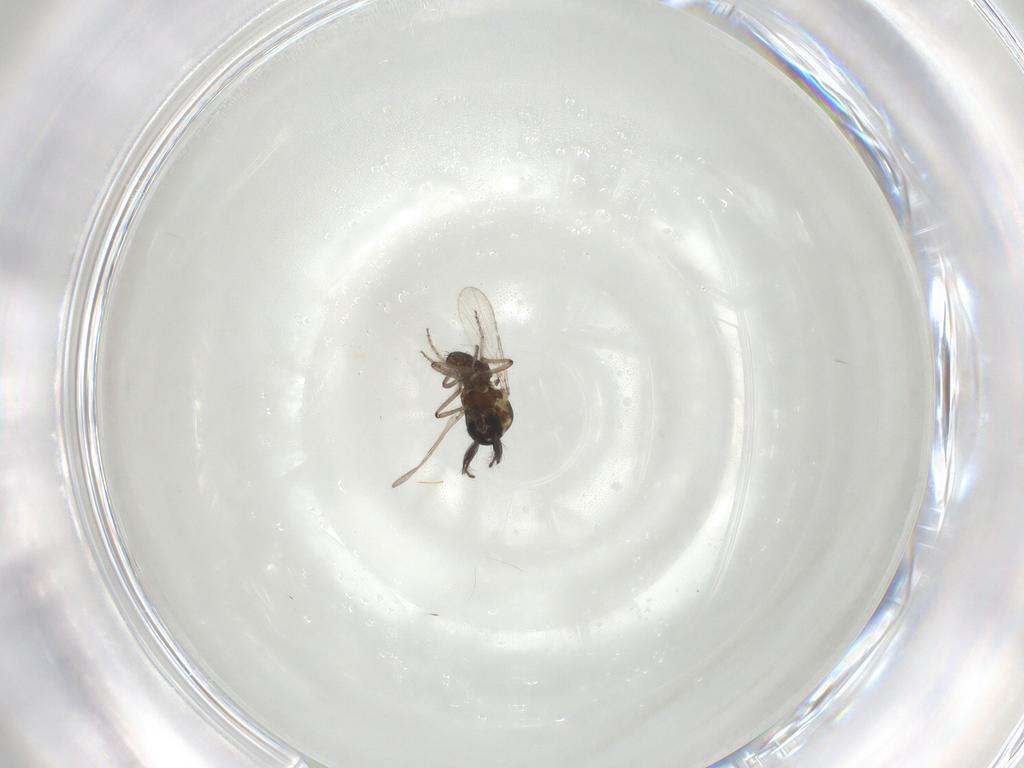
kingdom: Animalia
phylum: Arthropoda
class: Insecta
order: Diptera
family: Ceratopogonidae
